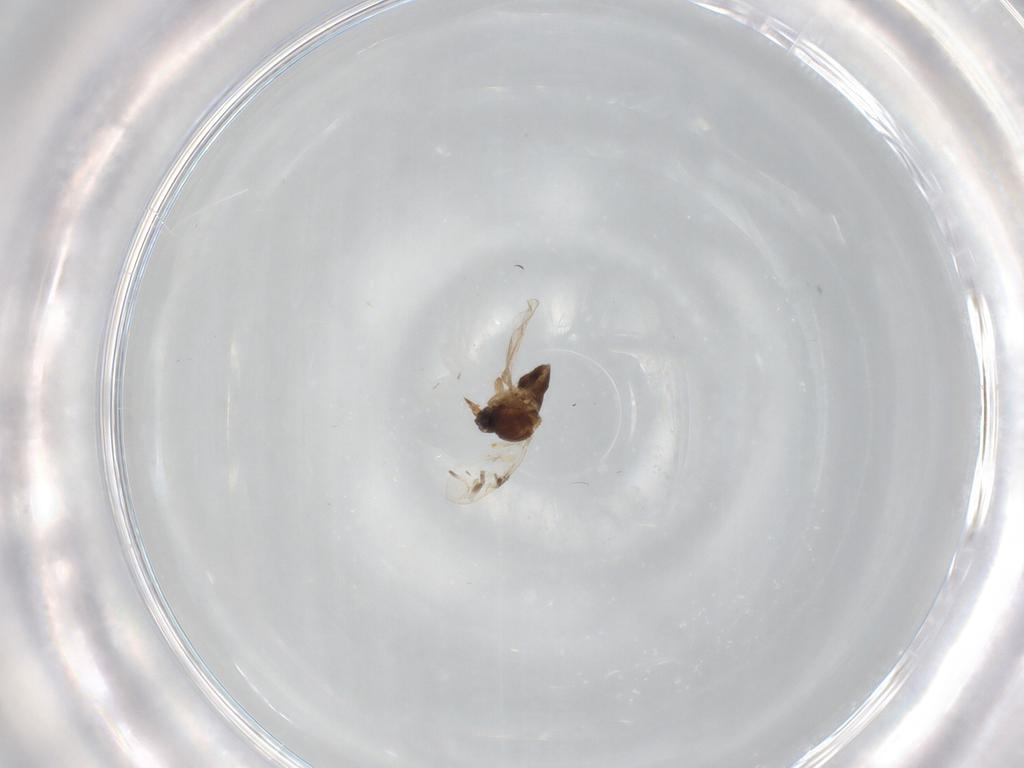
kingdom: Animalia
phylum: Arthropoda
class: Insecta
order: Diptera
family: Ceratopogonidae
